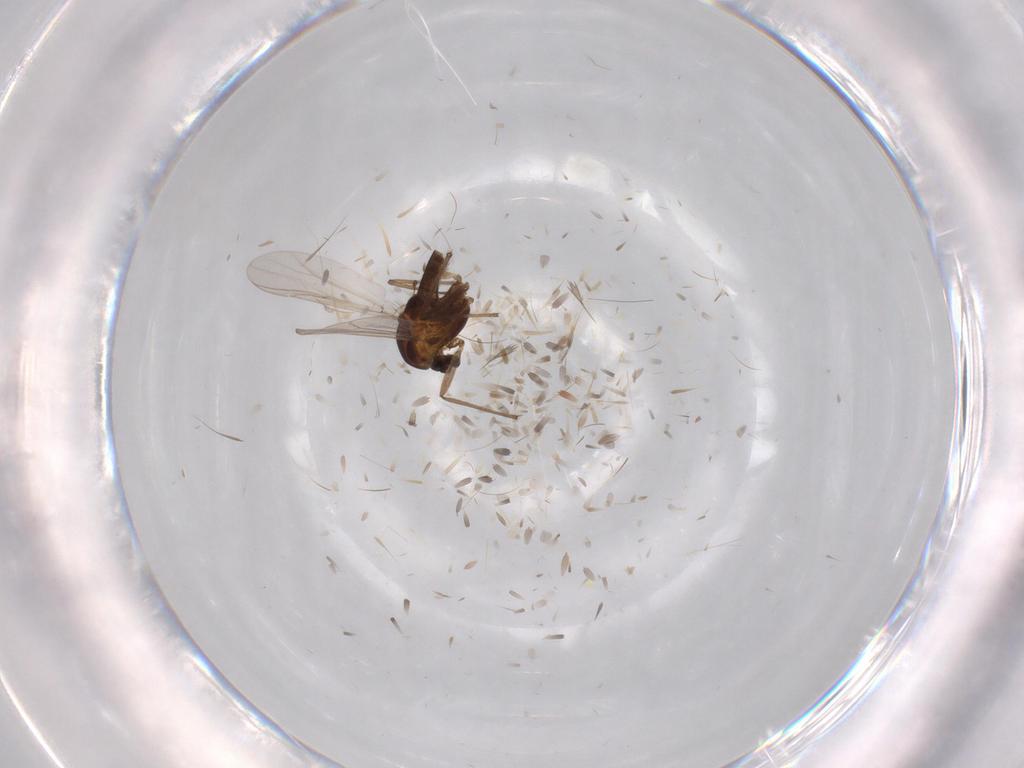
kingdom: Animalia
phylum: Arthropoda
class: Insecta
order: Diptera
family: Chironomidae
